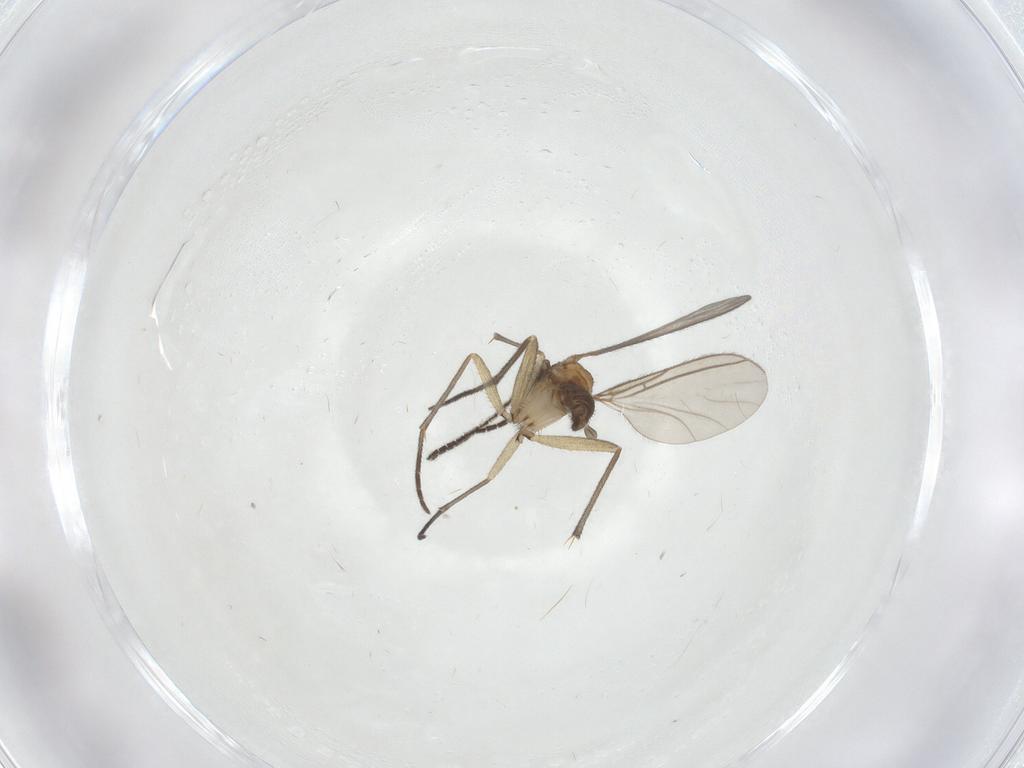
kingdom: Animalia
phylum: Arthropoda
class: Insecta
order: Diptera
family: Sciaridae
